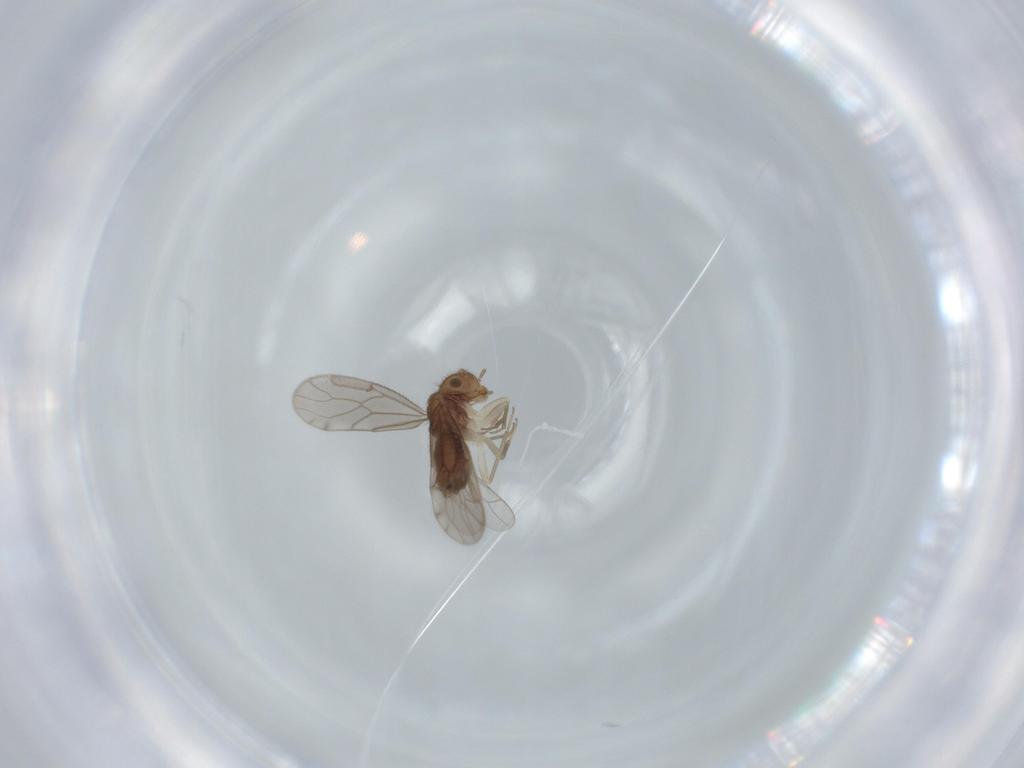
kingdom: Animalia
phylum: Arthropoda
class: Insecta
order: Psocodea
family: Ectopsocidae
